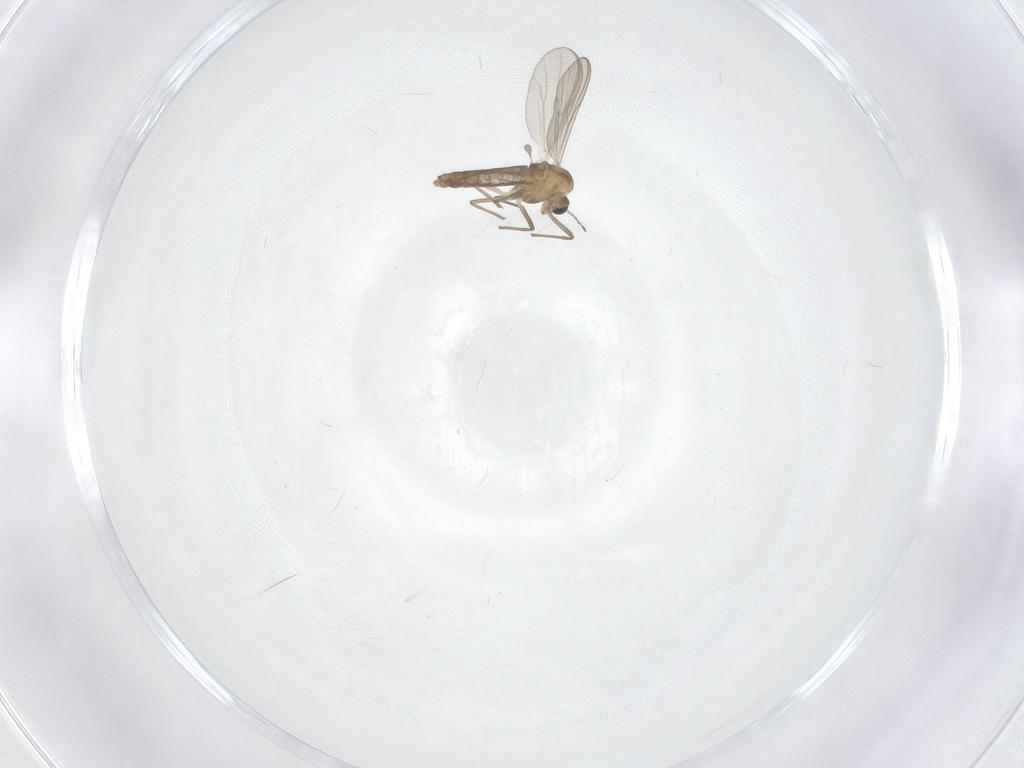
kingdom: Animalia
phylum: Arthropoda
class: Insecta
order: Diptera
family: Chironomidae
